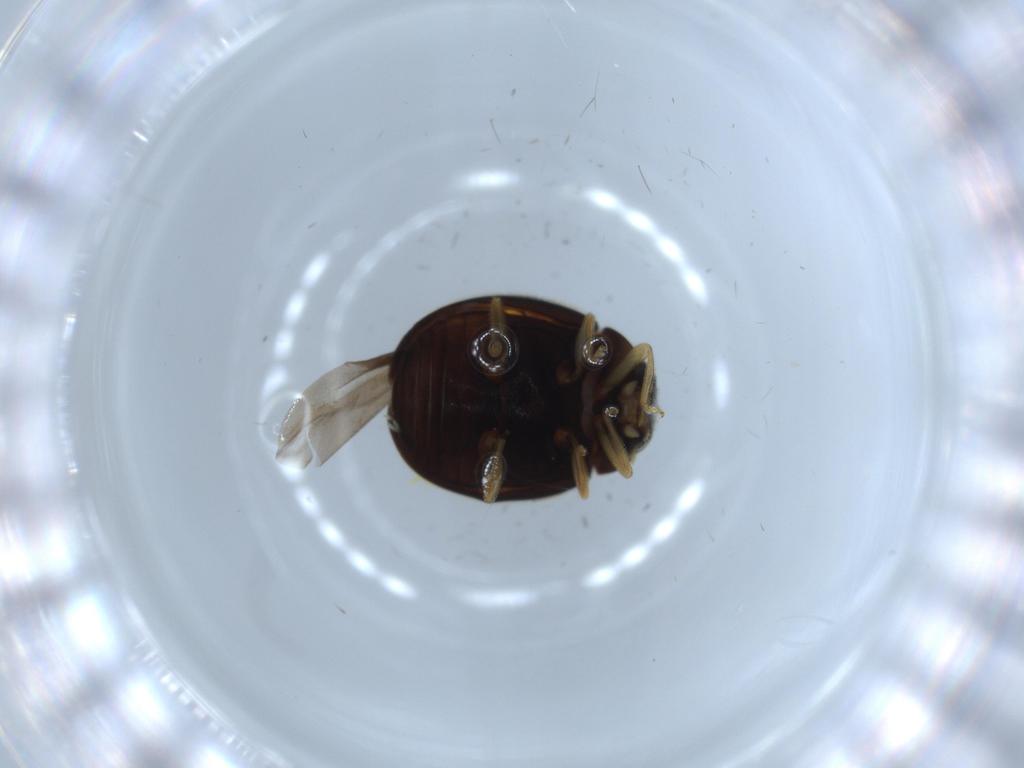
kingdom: Animalia
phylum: Arthropoda
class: Insecta
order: Coleoptera
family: Coccinellidae
